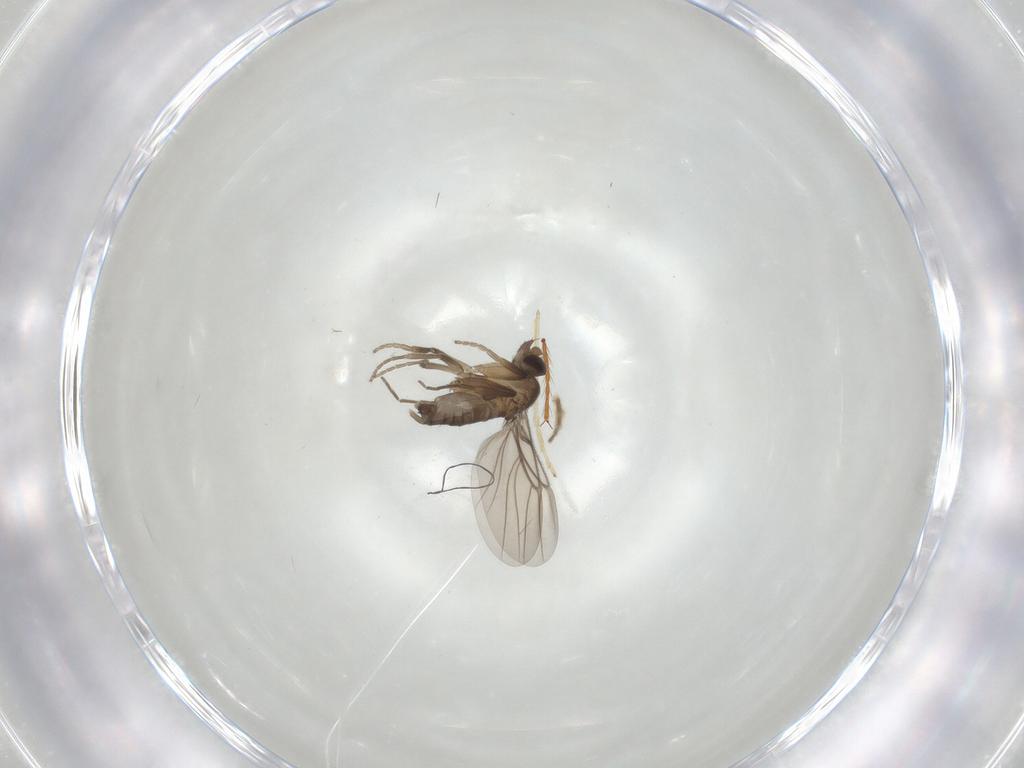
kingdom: Animalia
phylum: Arthropoda
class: Insecta
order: Diptera
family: Phoridae
